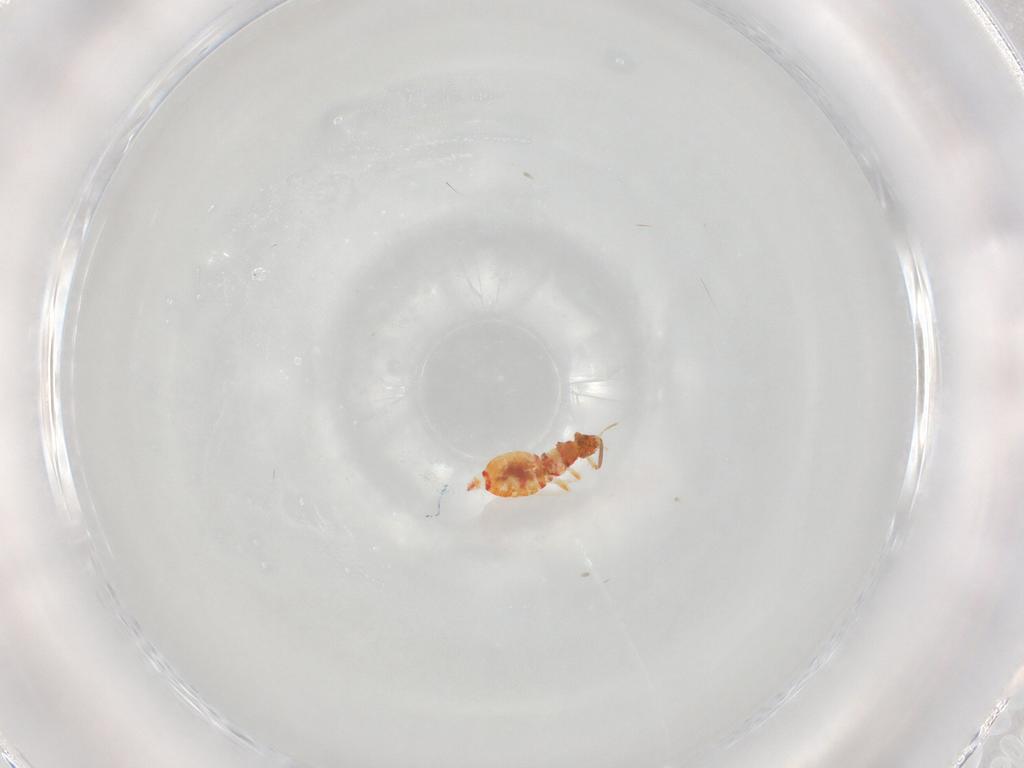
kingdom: Animalia
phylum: Arthropoda
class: Insecta
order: Thysanoptera
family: Aeolothripidae
